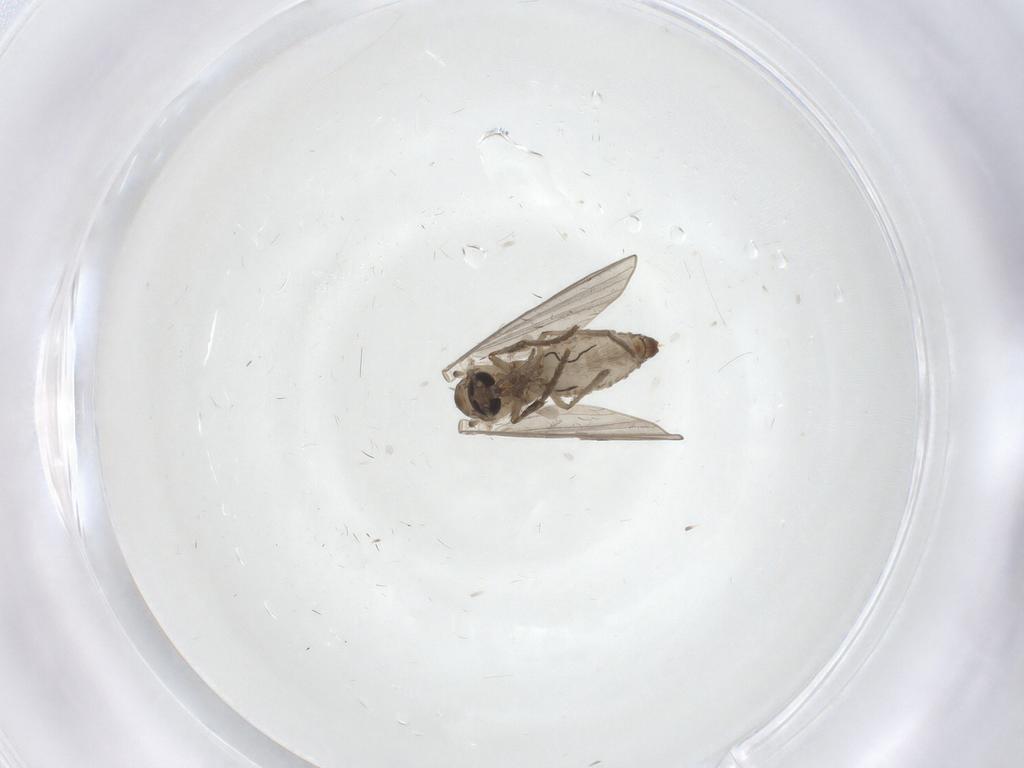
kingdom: Animalia
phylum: Arthropoda
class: Insecta
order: Diptera
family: Psychodidae
